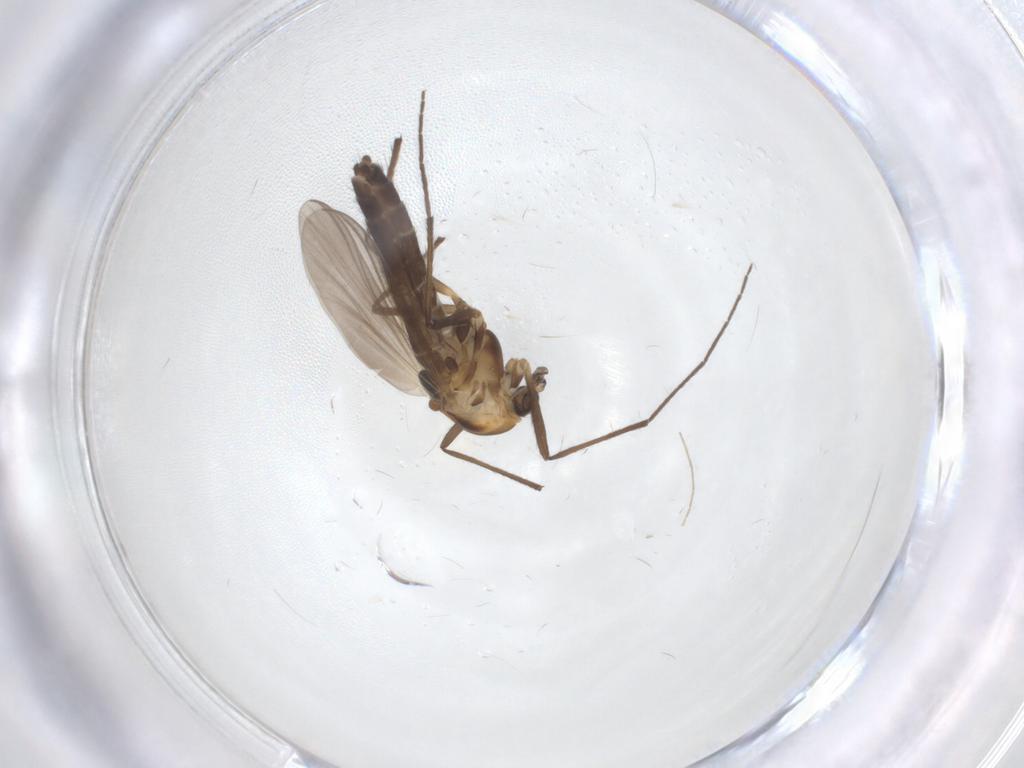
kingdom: Animalia
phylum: Arthropoda
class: Insecta
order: Diptera
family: Chironomidae
